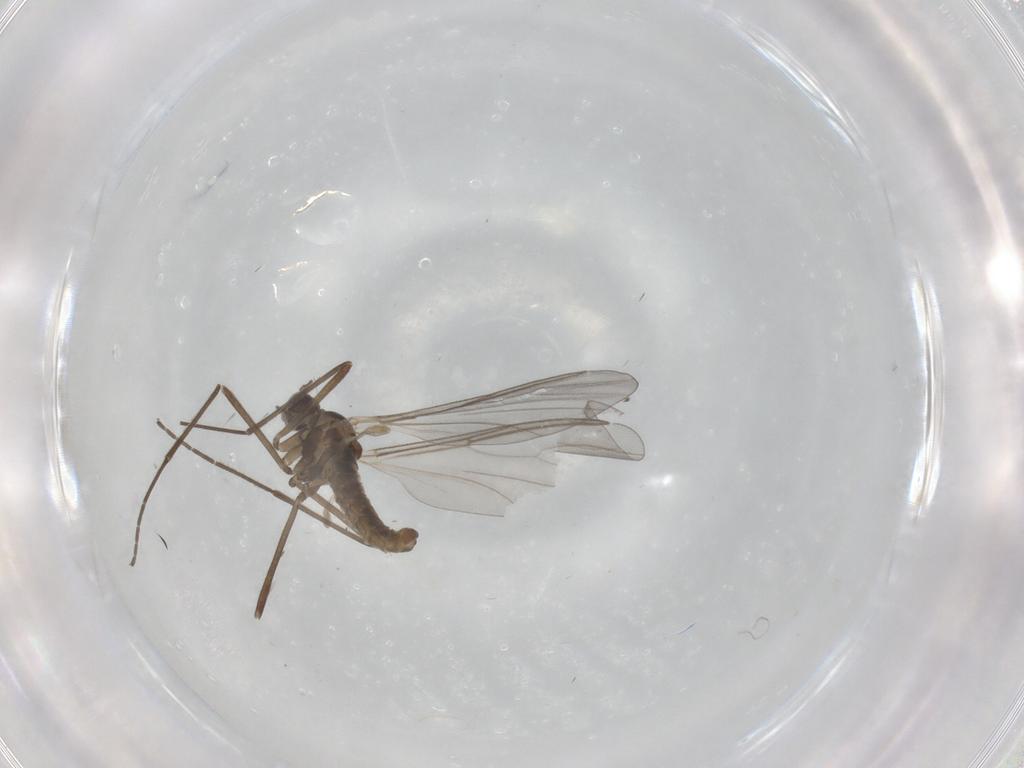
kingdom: Animalia
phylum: Arthropoda
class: Insecta
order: Diptera
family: Cecidomyiidae
